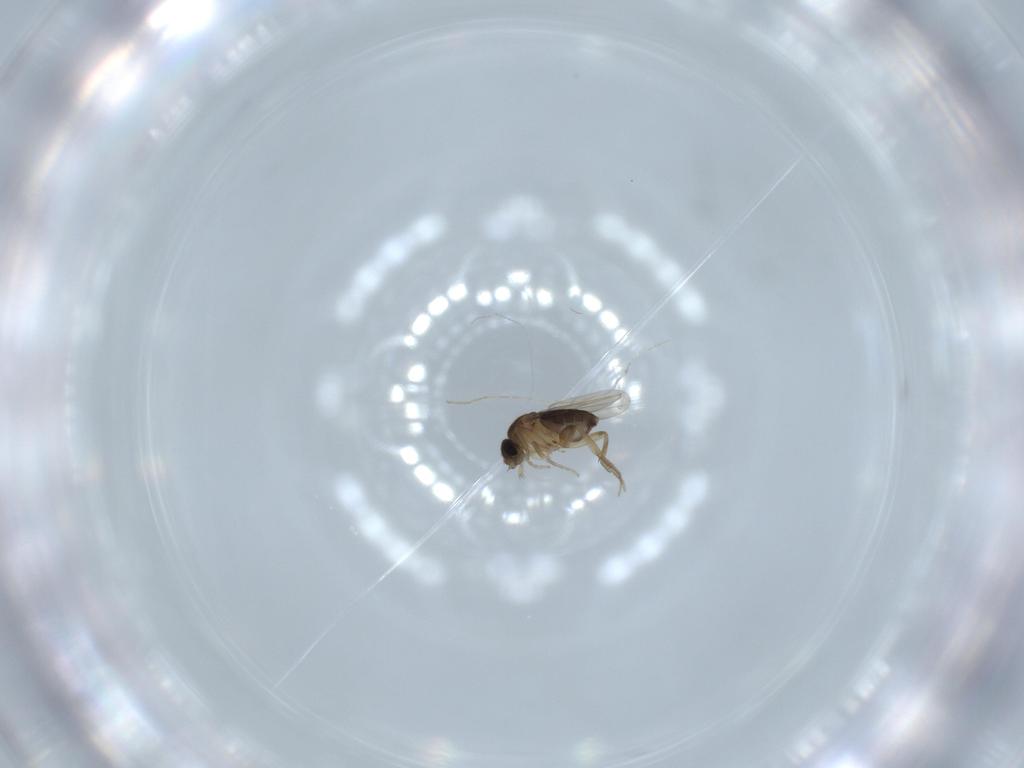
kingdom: Animalia
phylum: Arthropoda
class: Insecta
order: Diptera
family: Phoridae
